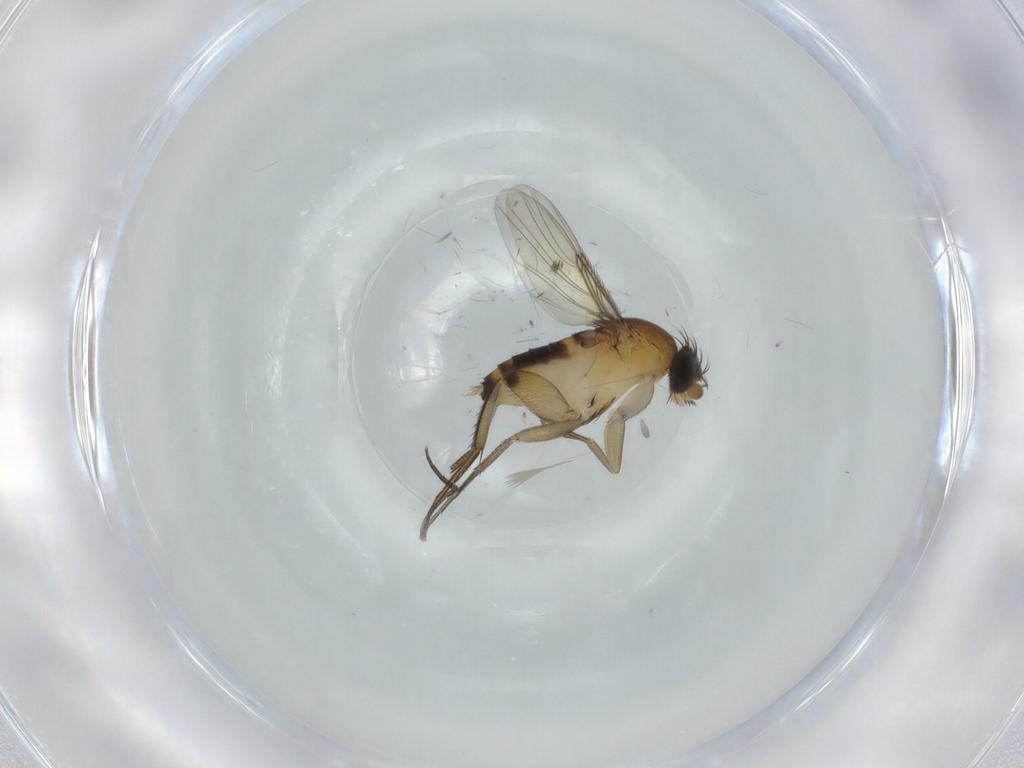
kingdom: Animalia
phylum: Arthropoda
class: Insecta
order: Diptera
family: Phoridae
